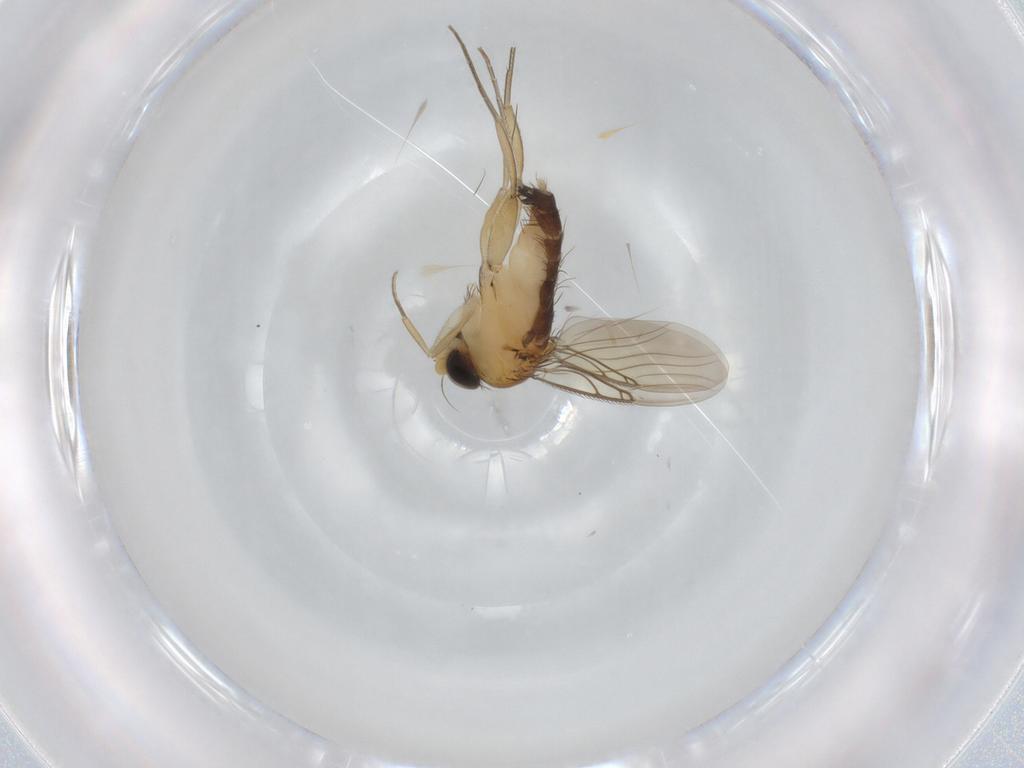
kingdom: Animalia
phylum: Arthropoda
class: Insecta
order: Diptera
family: Phoridae
